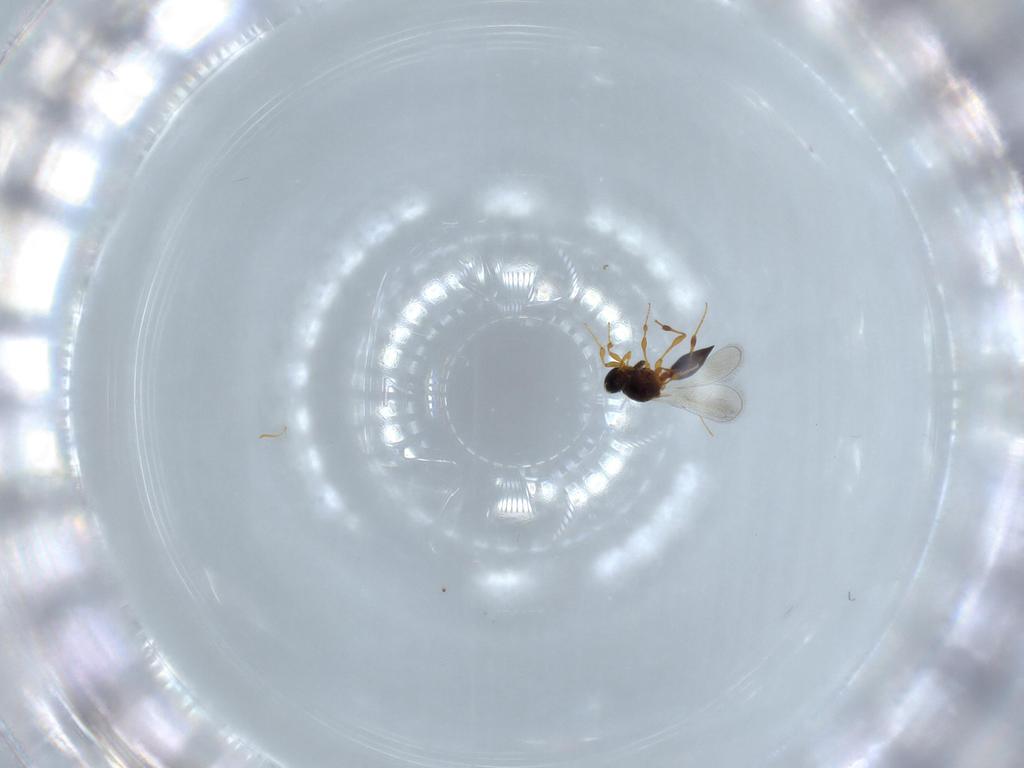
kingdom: Animalia
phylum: Arthropoda
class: Insecta
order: Hymenoptera
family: Platygastridae
